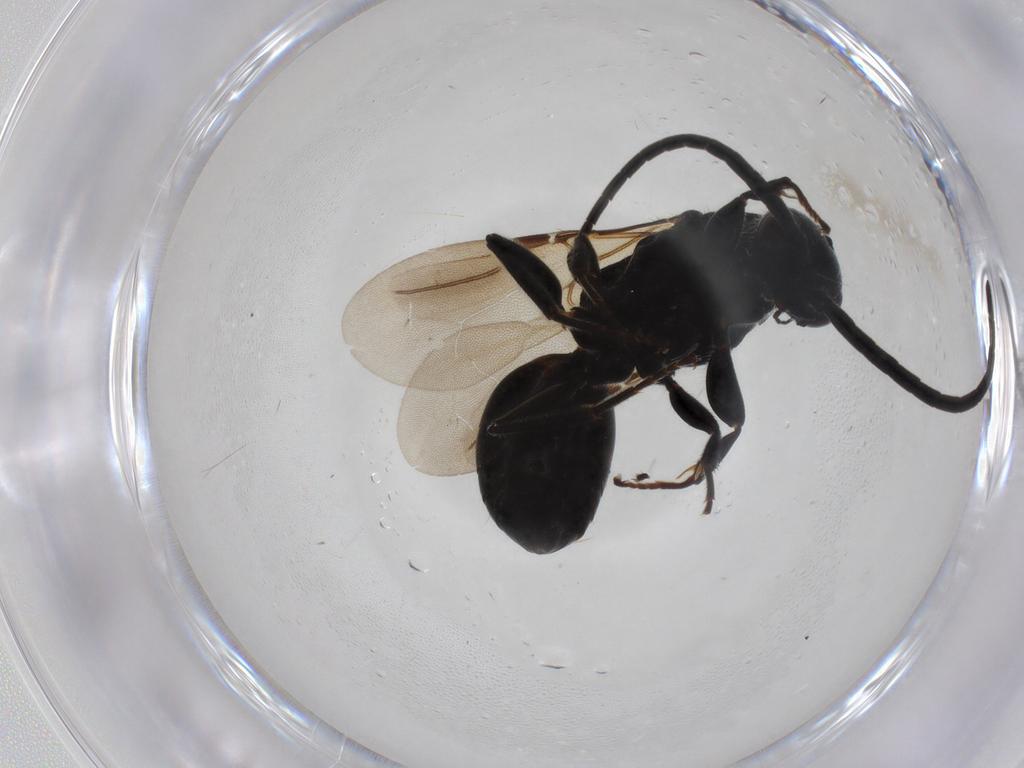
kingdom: Animalia
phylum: Arthropoda
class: Insecta
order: Hymenoptera
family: Bethylidae
